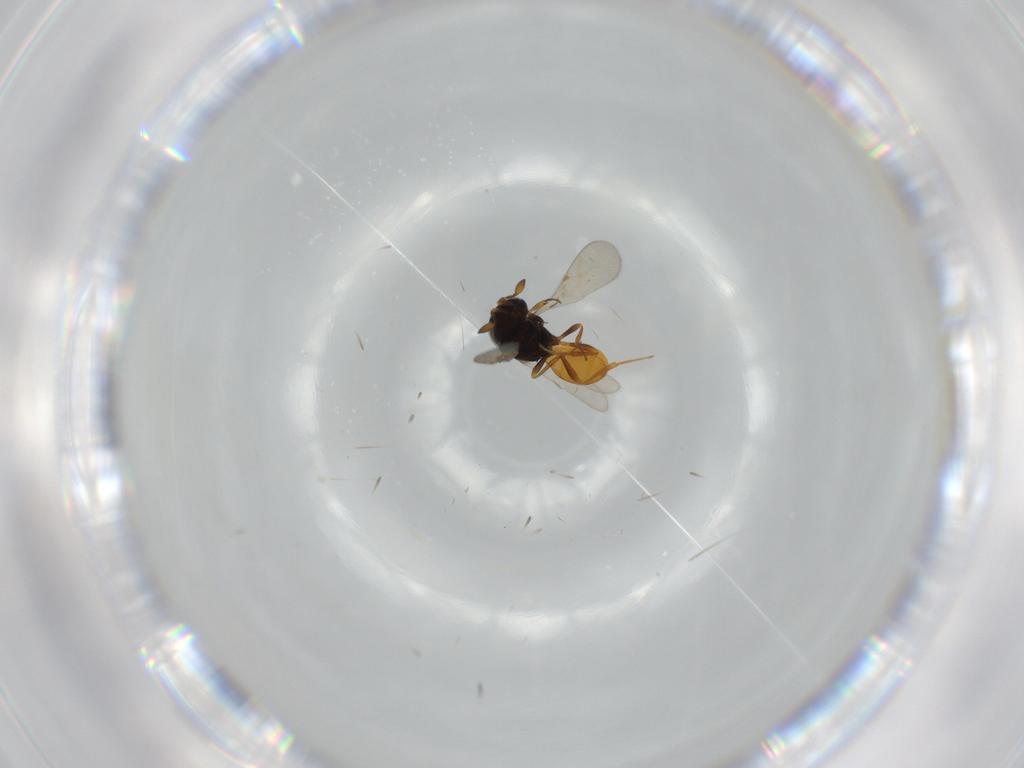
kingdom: Animalia
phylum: Arthropoda
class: Insecta
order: Hymenoptera
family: Scelionidae
